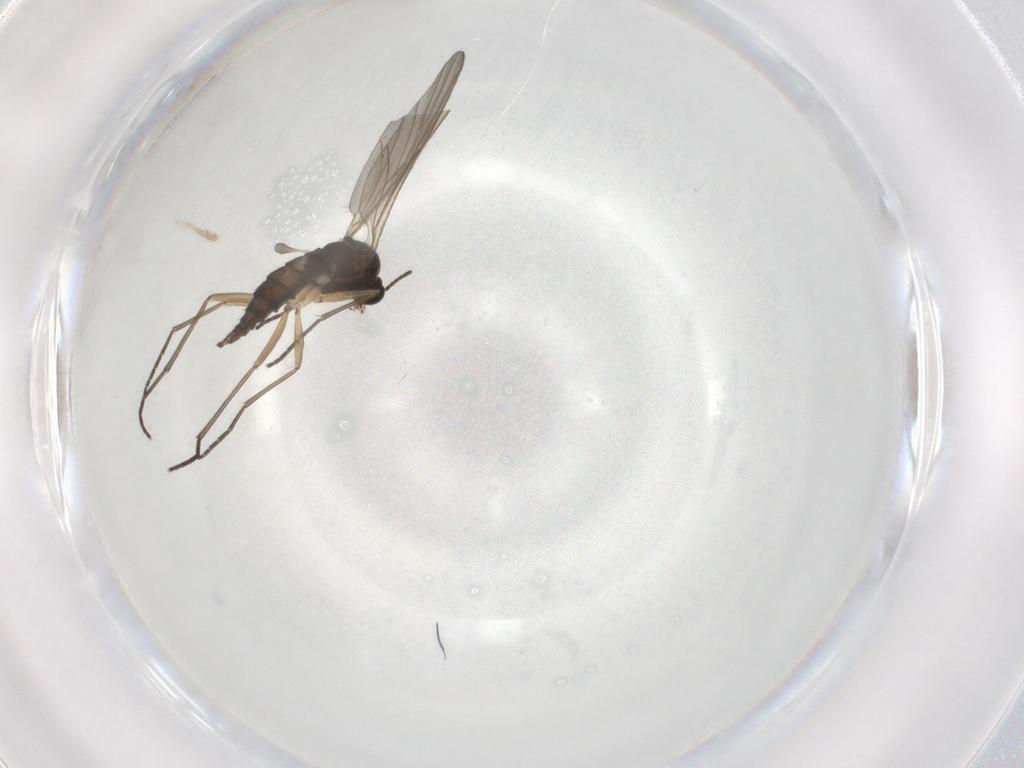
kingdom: Animalia
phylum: Arthropoda
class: Insecta
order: Diptera
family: Sciaridae
